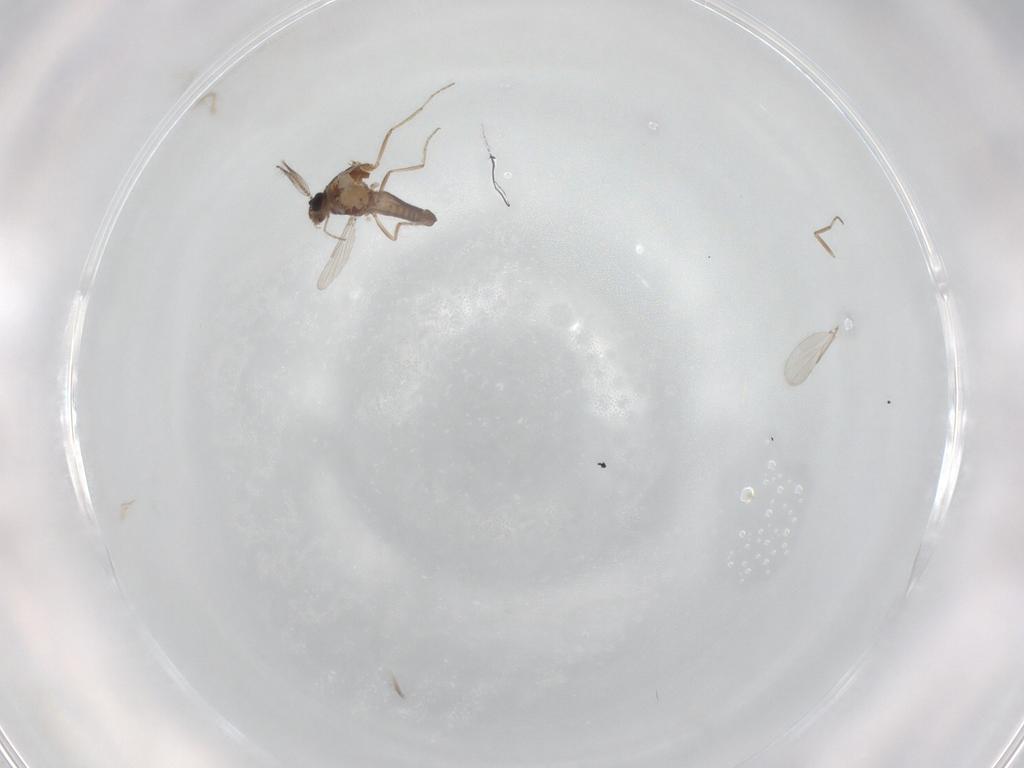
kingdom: Animalia
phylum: Arthropoda
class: Insecta
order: Diptera
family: Ceratopogonidae
